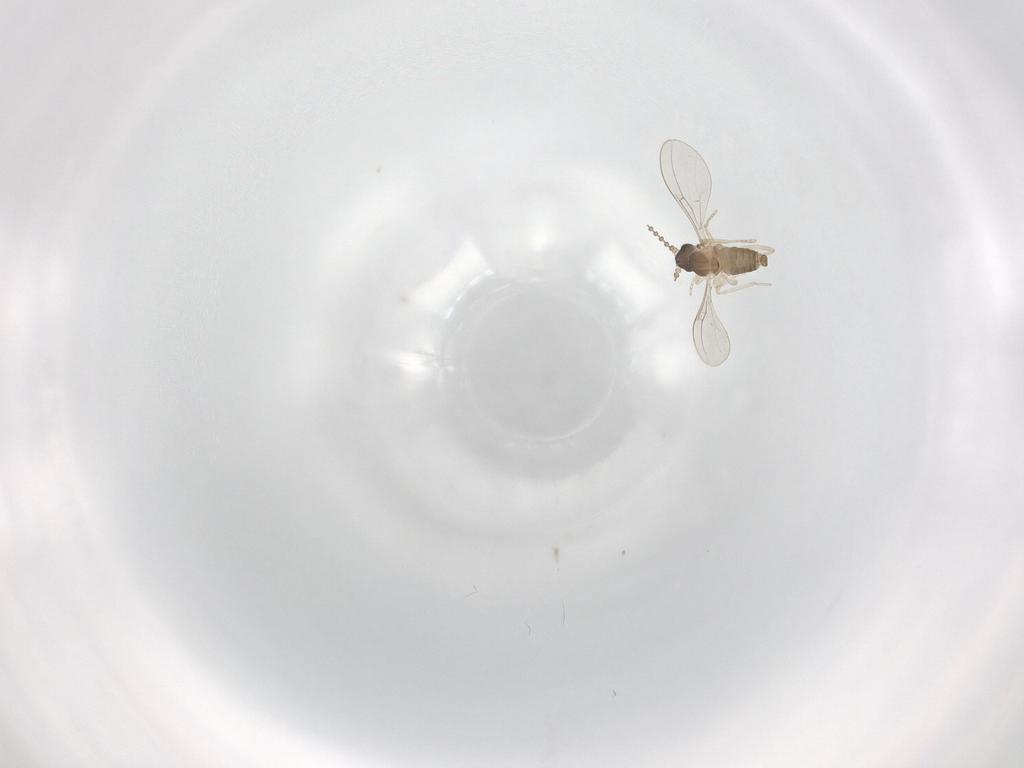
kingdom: Animalia
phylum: Arthropoda
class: Insecta
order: Diptera
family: Cecidomyiidae
